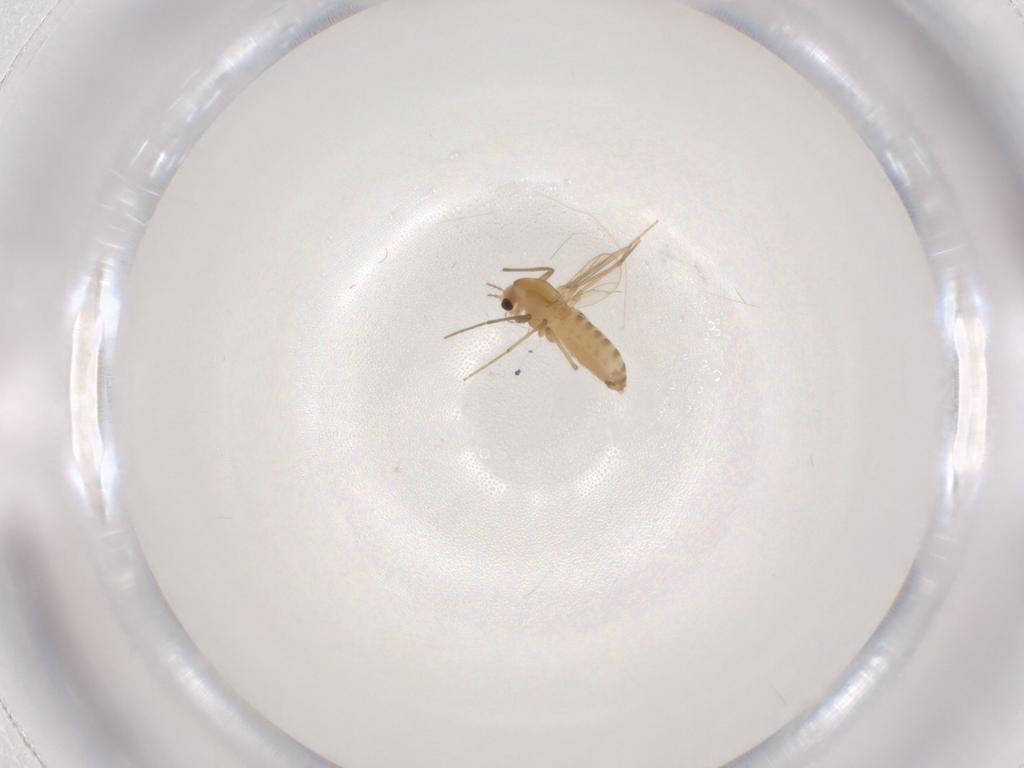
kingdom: Animalia
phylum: Arthropoda
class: Insecta
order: Diptera
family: Chironomidae
